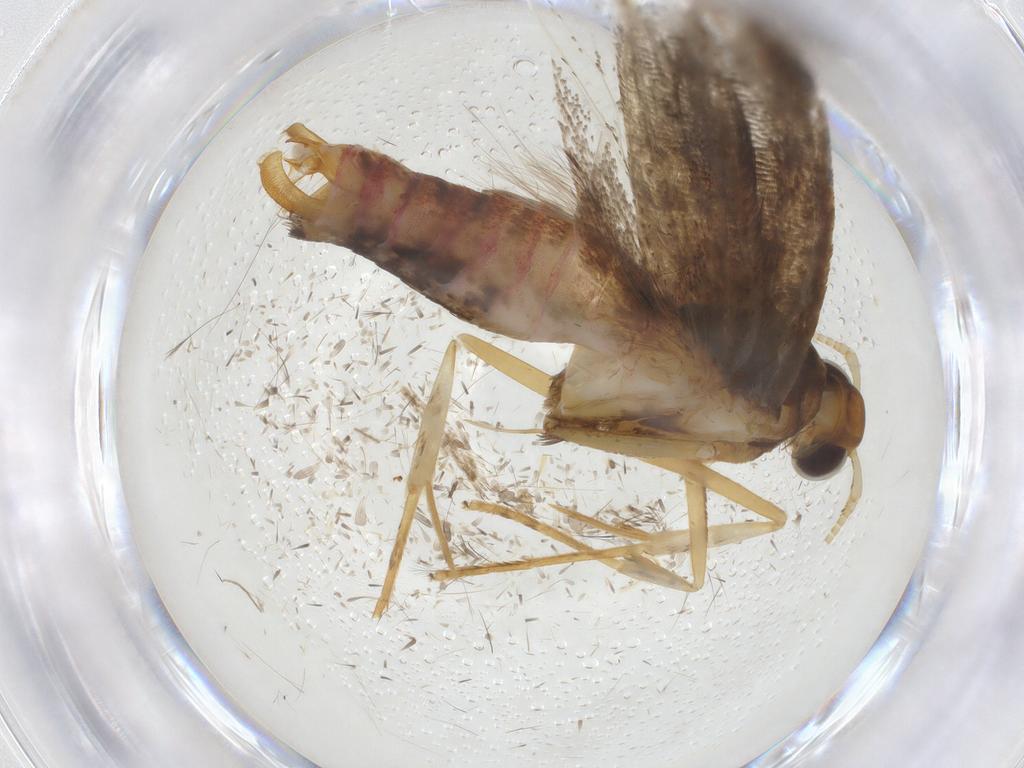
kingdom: Animalia
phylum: Arthropoda
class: Insecta
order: Lepidoptera
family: Lecithoceridae
